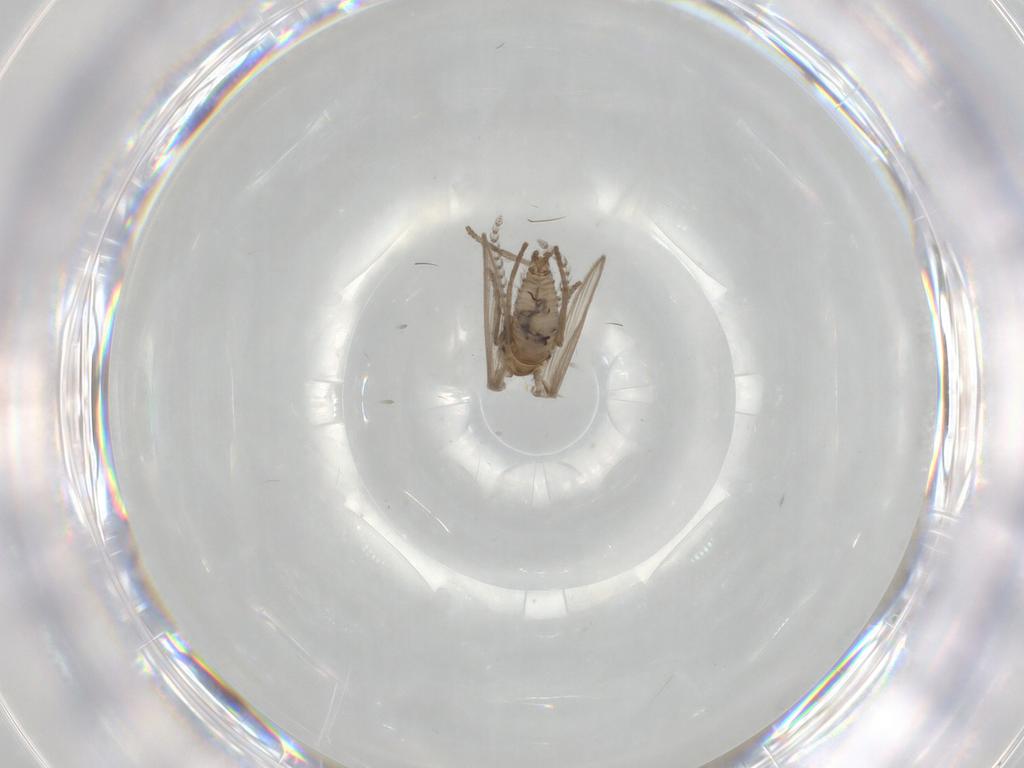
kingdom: Animalia
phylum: Arthropoda
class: Insecta
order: Diptera
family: Psychodidae
